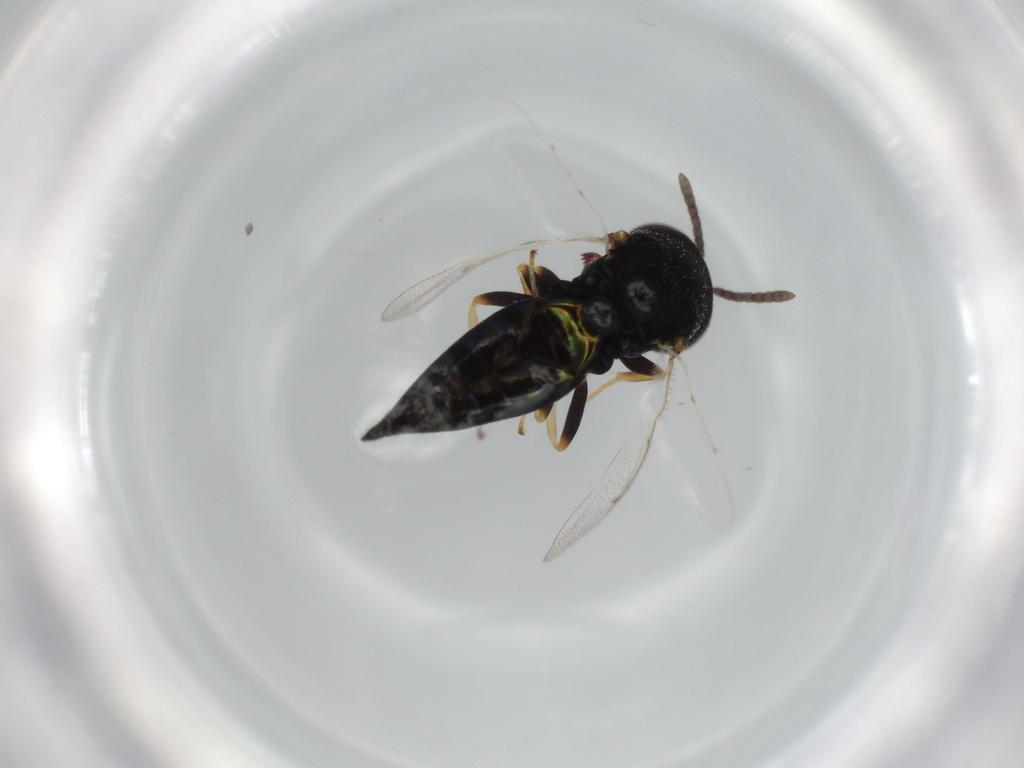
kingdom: Animalia
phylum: Arthropoda
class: Insecta
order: Hymenoptera
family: Pteromalidae
